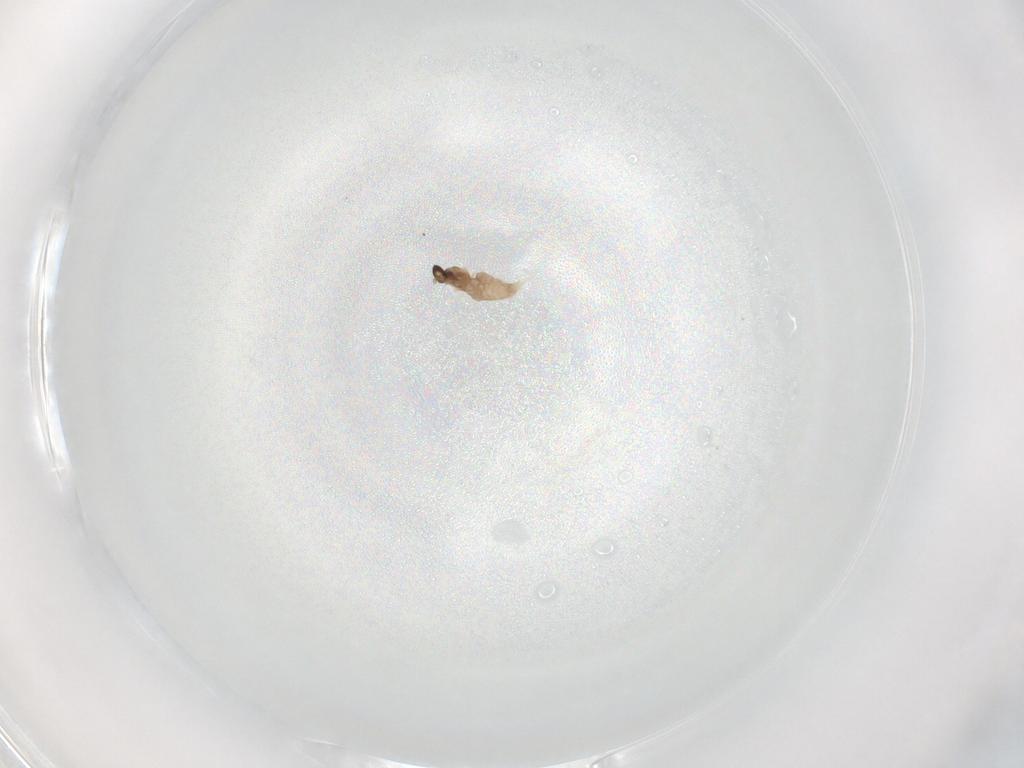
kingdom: Animalia
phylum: Arthropoda
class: Insecta
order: Diptera
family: Cecidomyiidae
